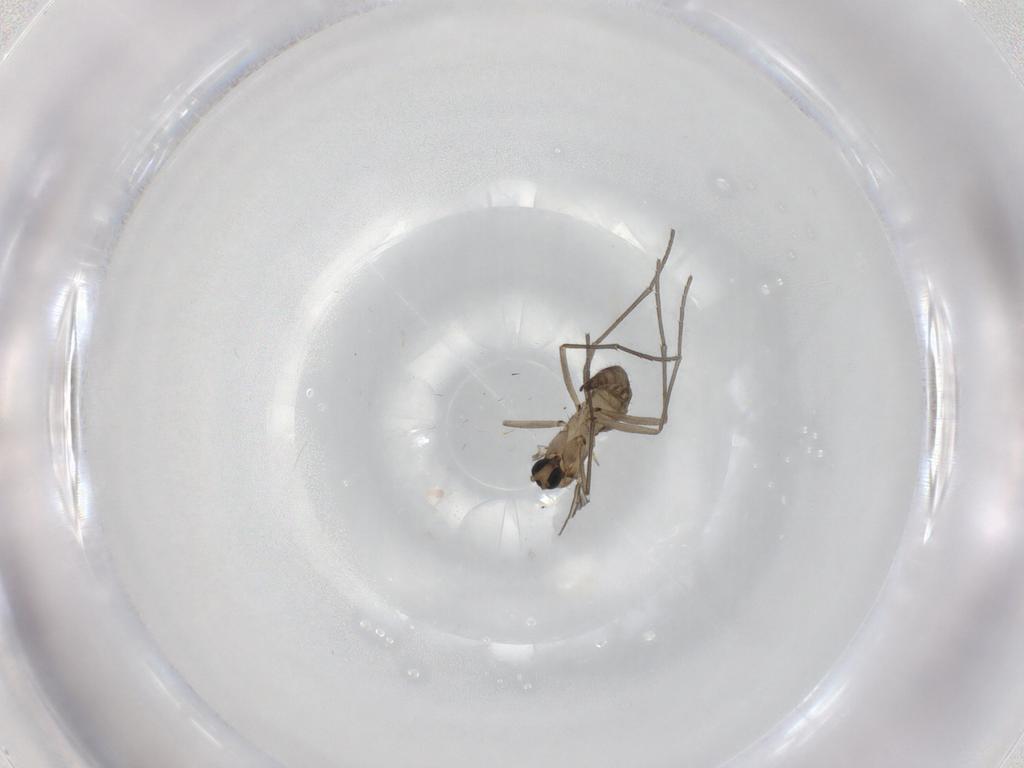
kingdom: Animalia
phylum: Arthropoda
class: Insecta
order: Diptera
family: Sciaridae
